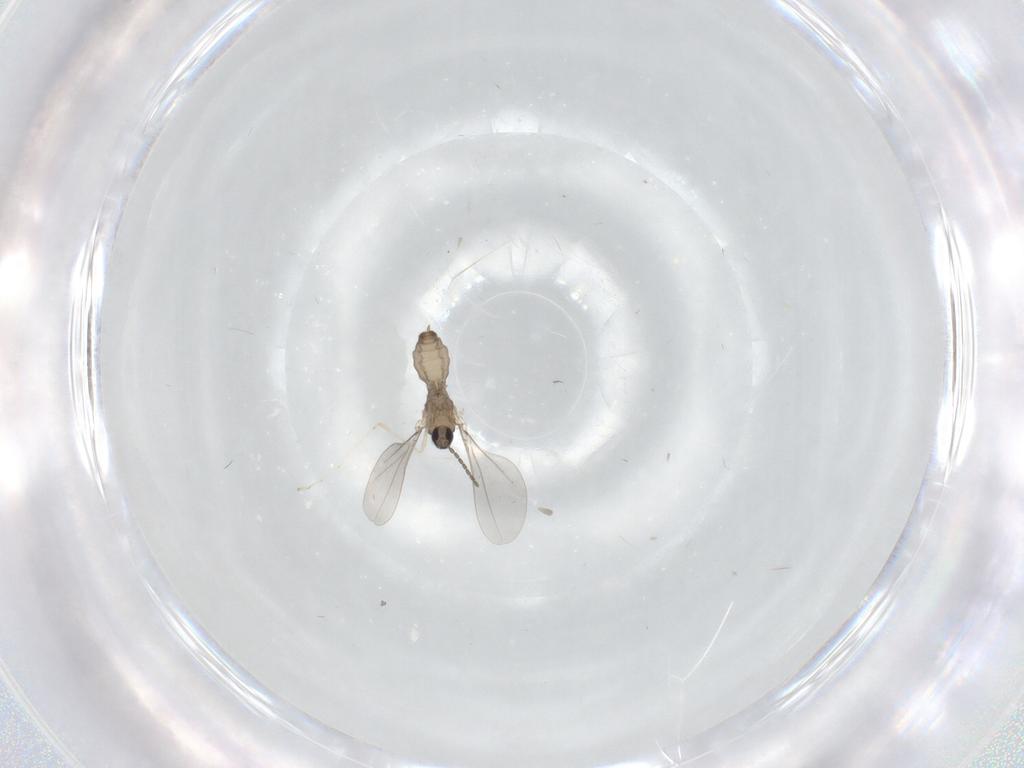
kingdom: Animalia
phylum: Arthropoda
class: Insecta
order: Diptera
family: Cecidomyiidae
